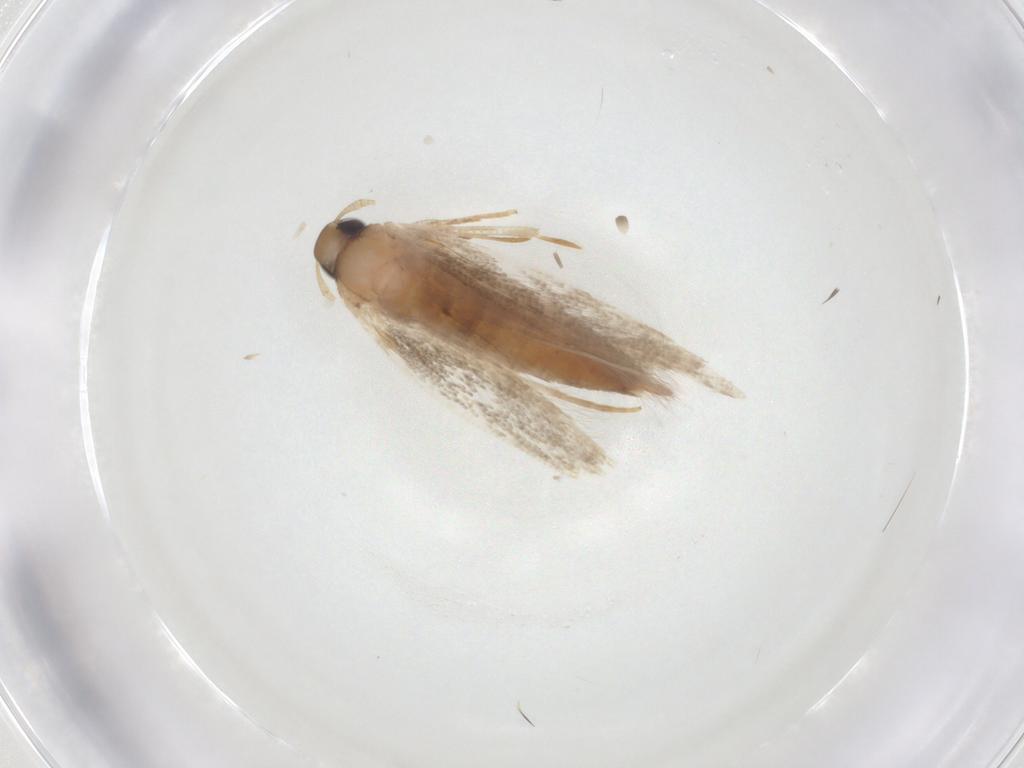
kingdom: Animalia
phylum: Arthropoda
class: Insecta
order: Lepidoptera
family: Cosmopterigidae
